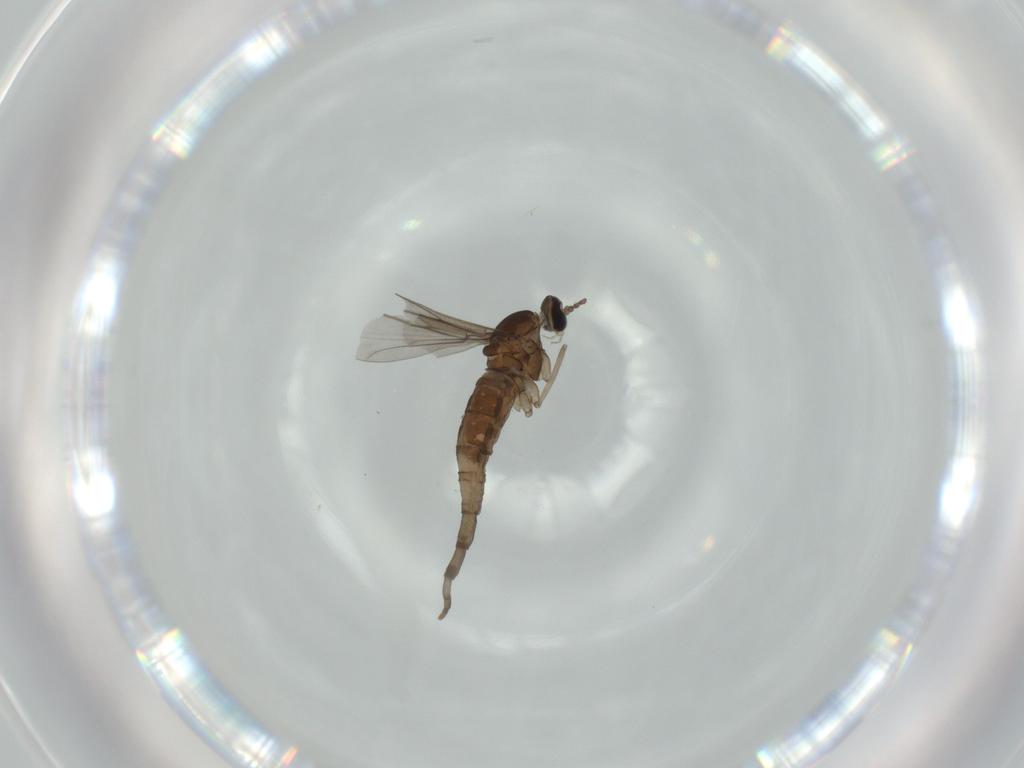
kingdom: Animalia
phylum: Arthropoda
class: Insecta
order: Diptera
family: Cecidomyiidae
